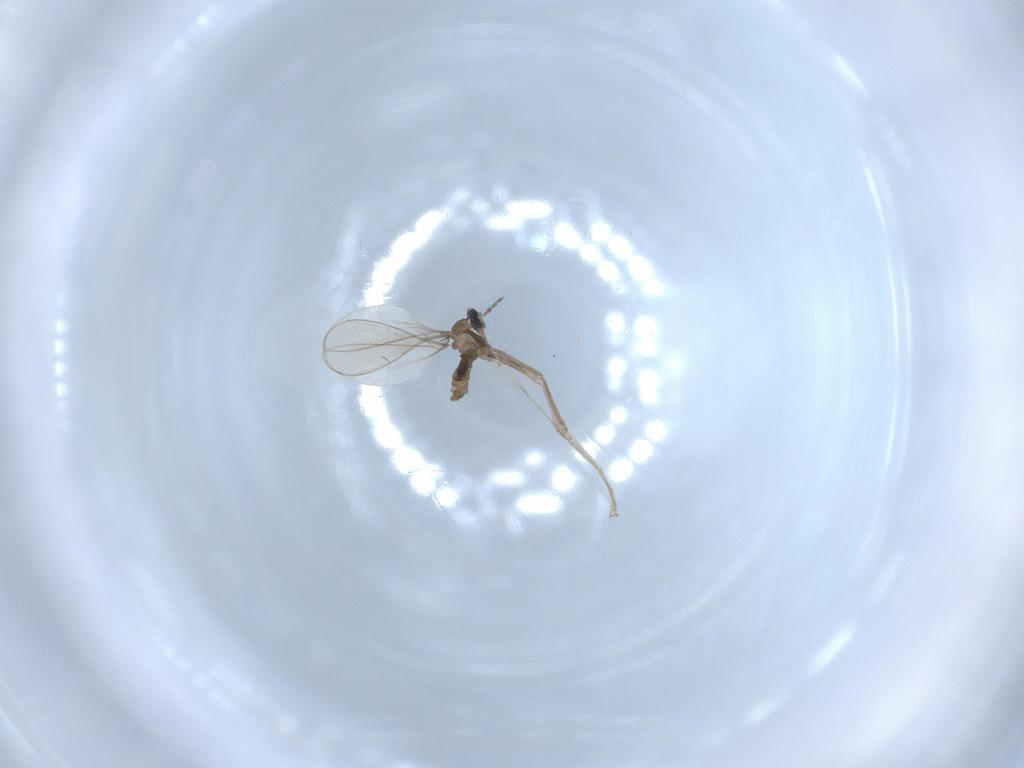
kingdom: Animalia
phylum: Arthropoda
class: Insecta
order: Diptera
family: Cecidomyiidae
